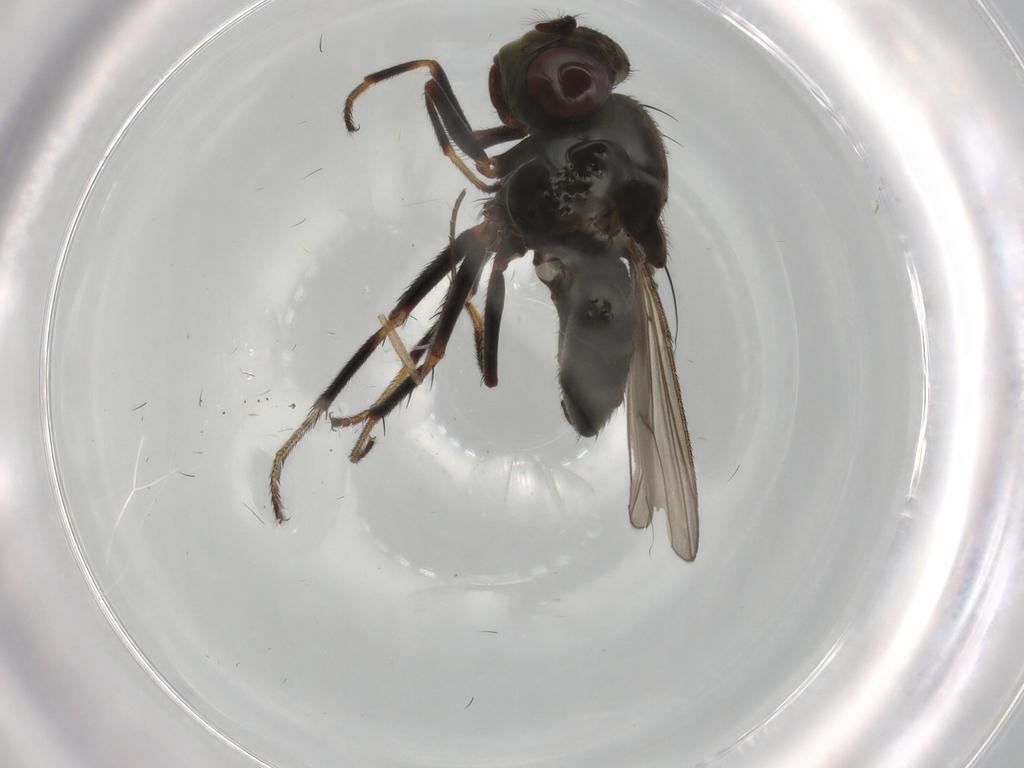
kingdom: Animalia
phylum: Arthropoda
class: Insecta
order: Diptera
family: Ephydridae
